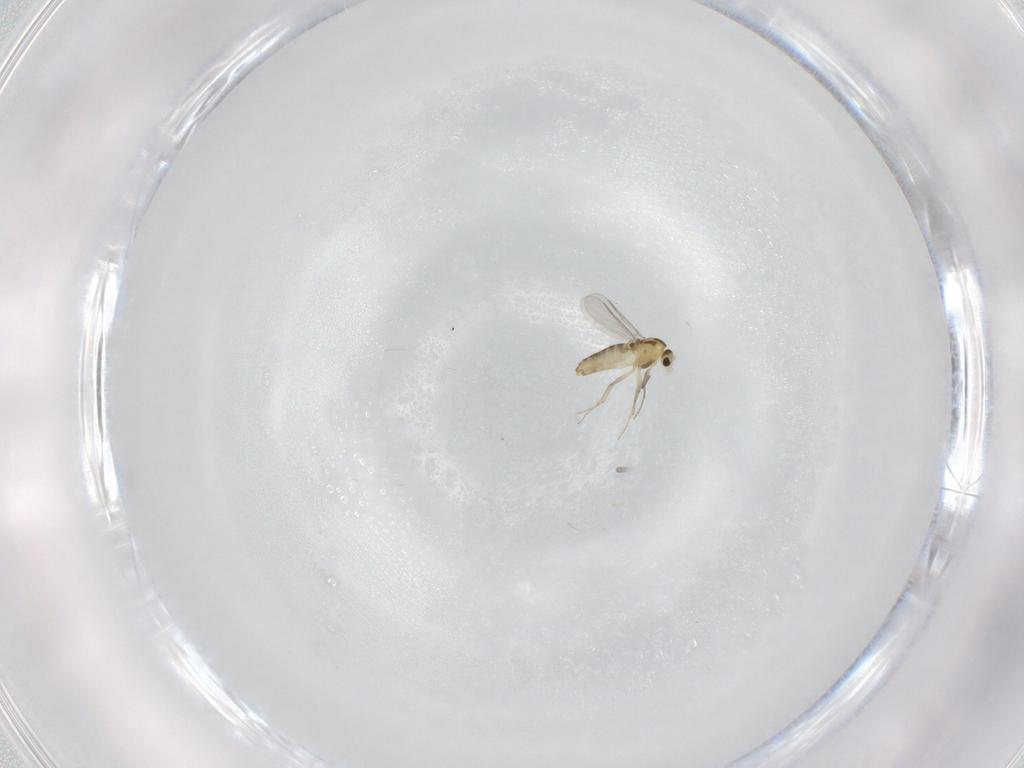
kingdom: Animalia
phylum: Arthropoda
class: Insecta
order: Diptera
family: Chironomidae
